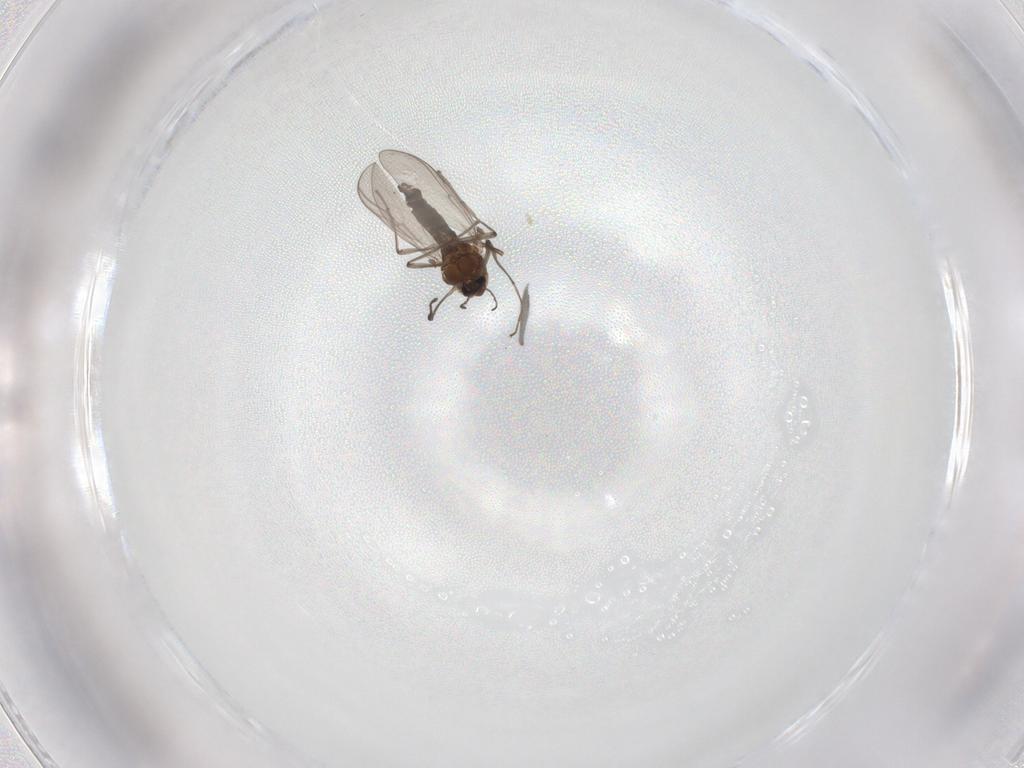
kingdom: Animalia
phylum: Arthropoda
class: Insecta
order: Diptera
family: Chironomidae
